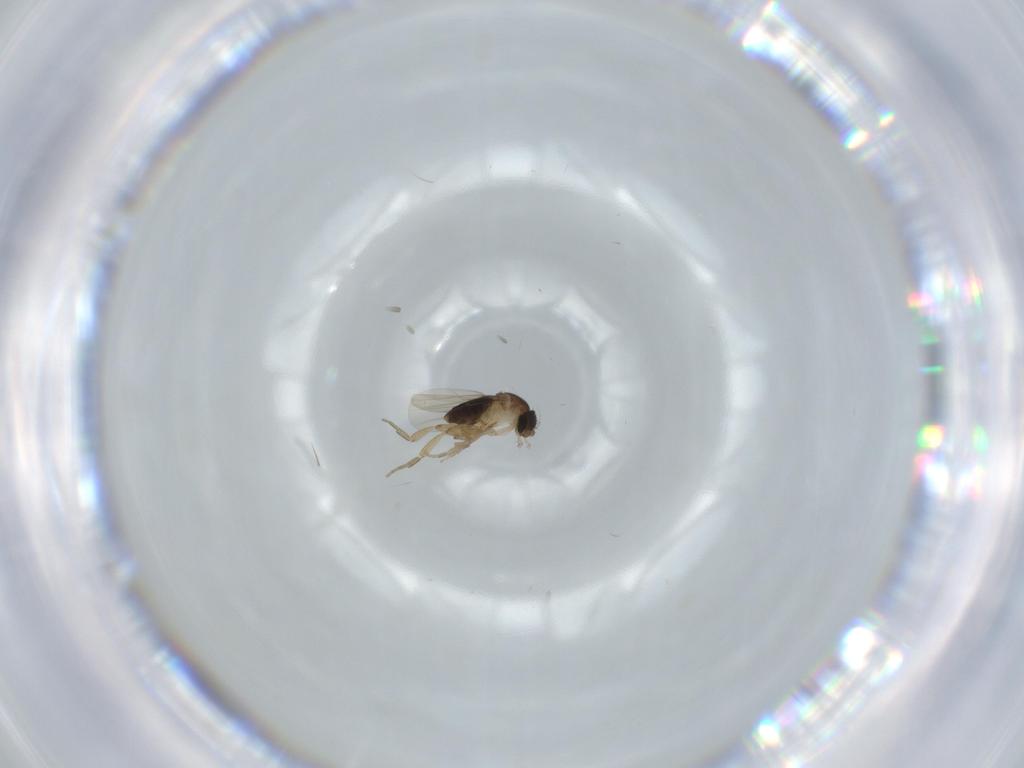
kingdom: Animalia
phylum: Arthropoda
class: Insecta
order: Diptera
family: Phoridae
